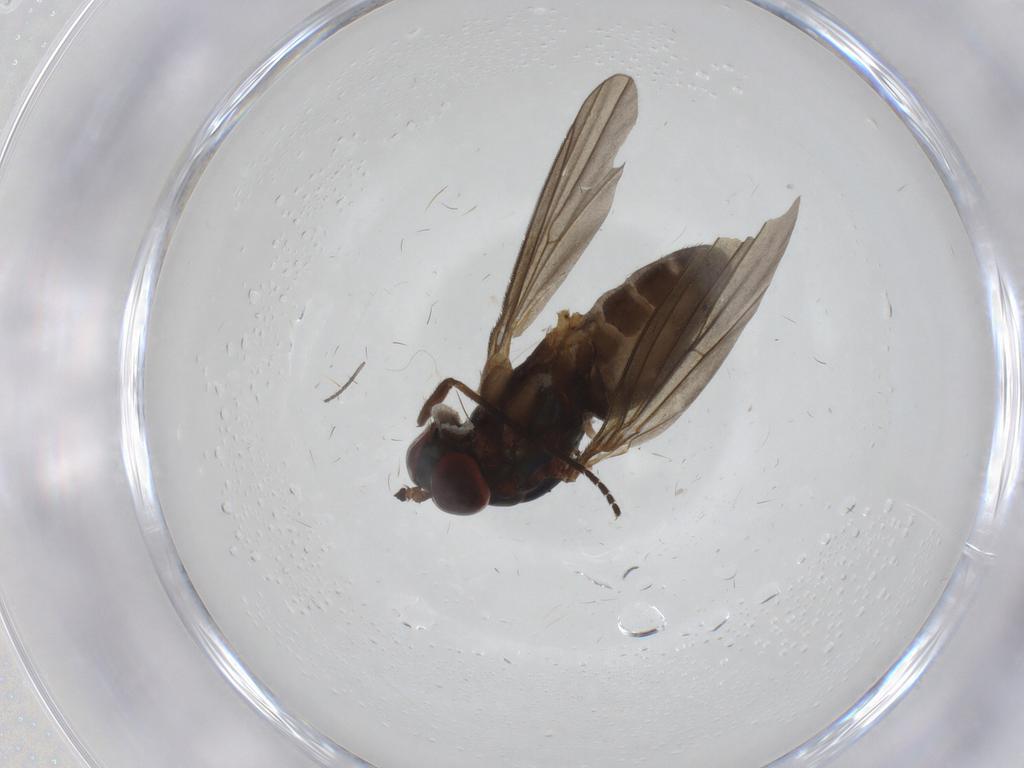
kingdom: Animalia
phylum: Arthropoda
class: Insecta
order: Diptera
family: Dolichopodidae
